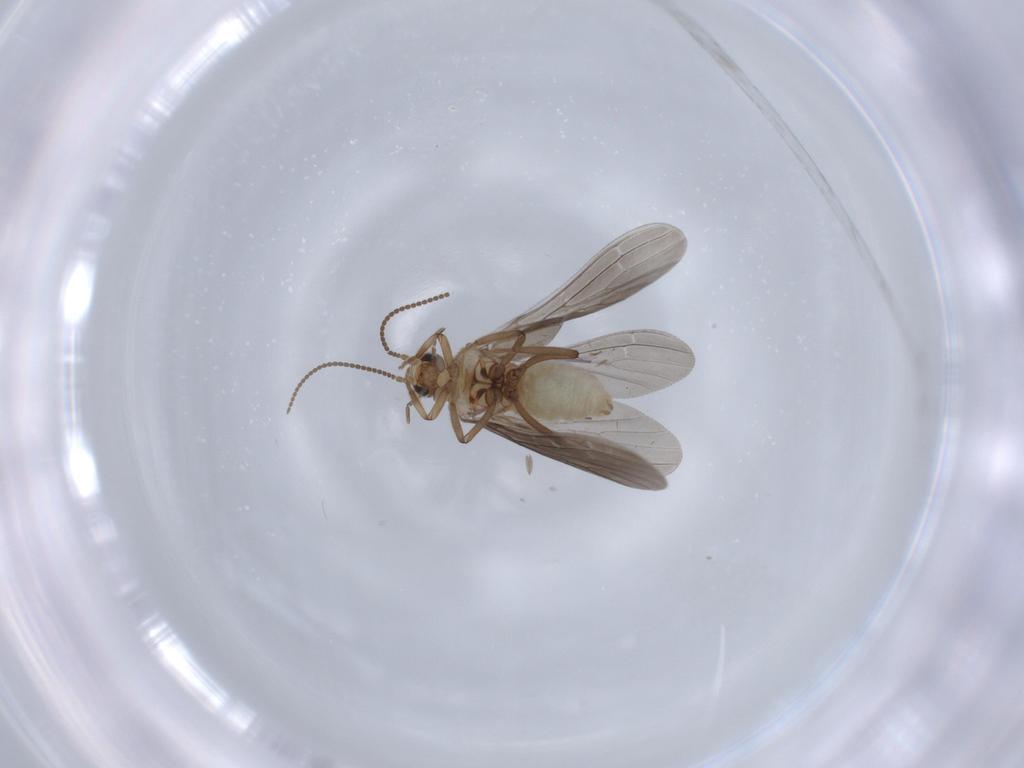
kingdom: Animalia
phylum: Arthropoda
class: Insecta
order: Neuroptera
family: Coniopterygidae
